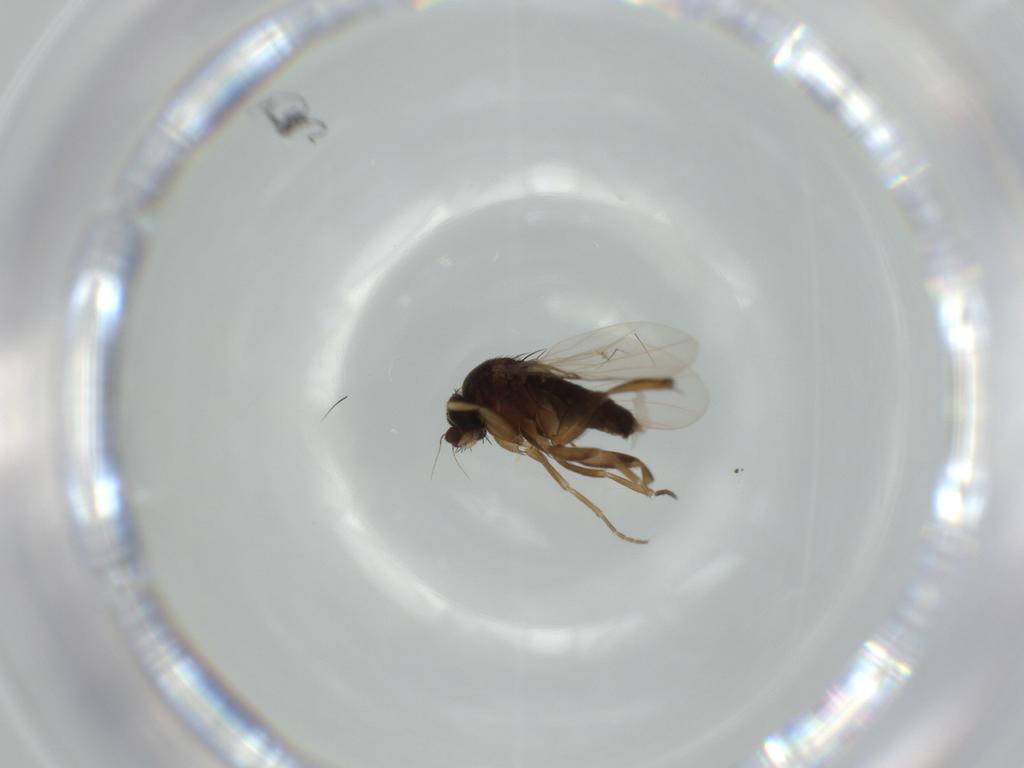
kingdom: Animalia
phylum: Arthropoda
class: Insecta
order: Diptera
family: Phoridae
